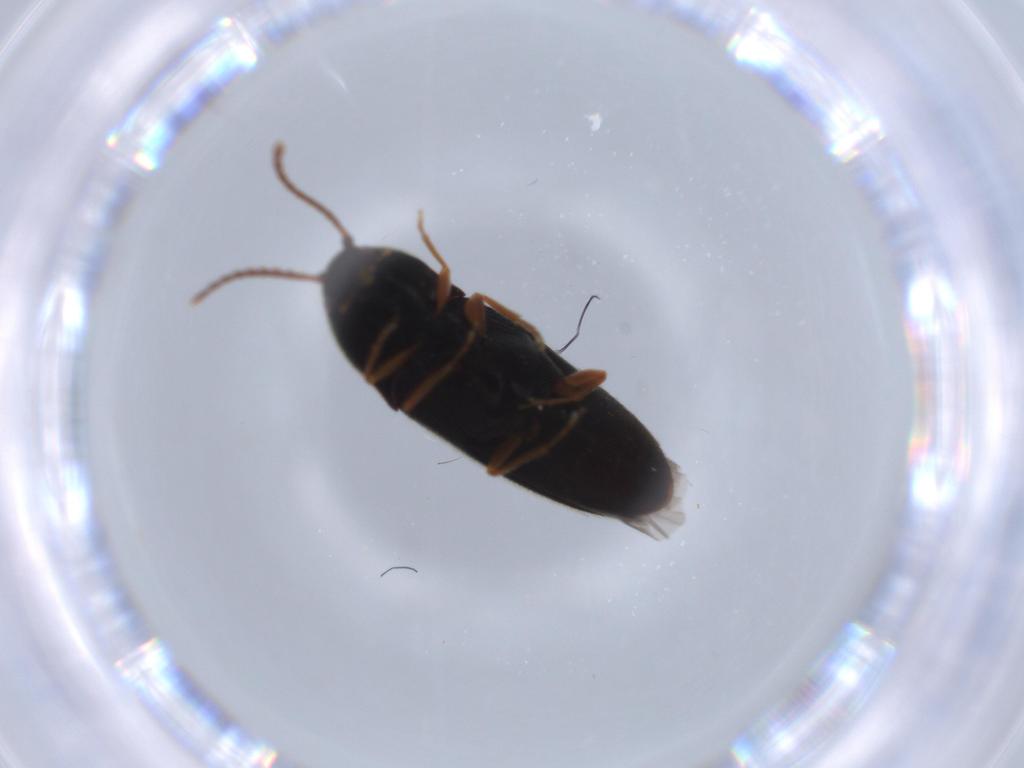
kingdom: Animalia
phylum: Arthropoda
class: Insecta
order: Coleoptera
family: Elateridae
